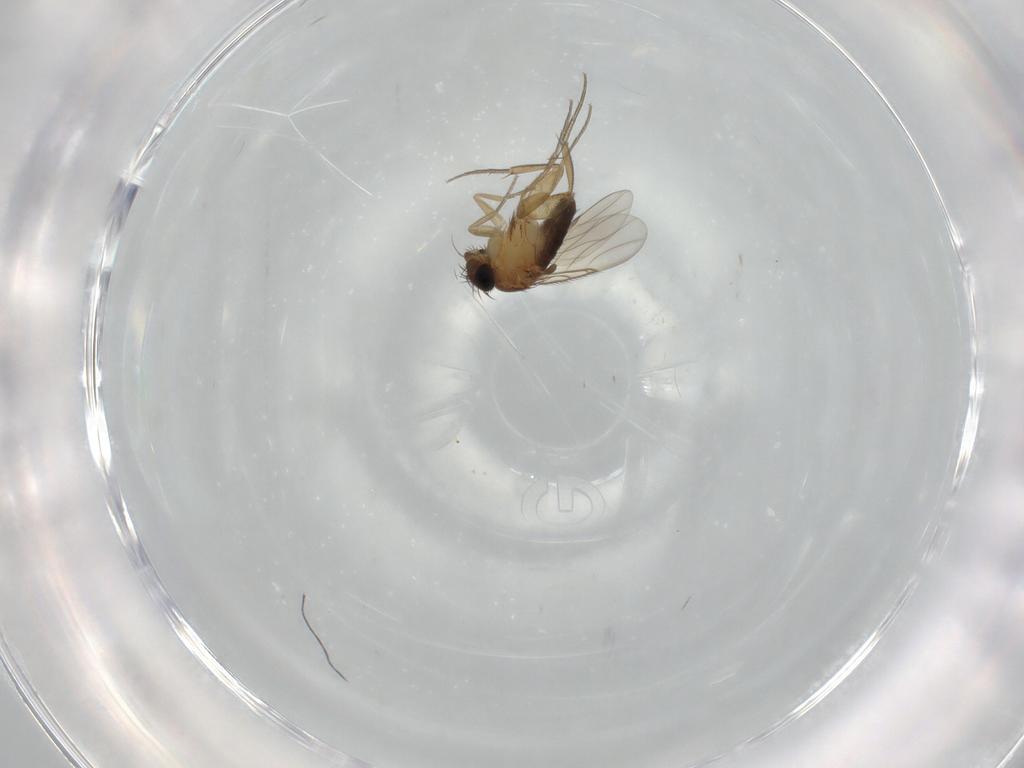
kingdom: Animalia
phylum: Arthropoda
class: Insecta
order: Diptera
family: Phoridae
